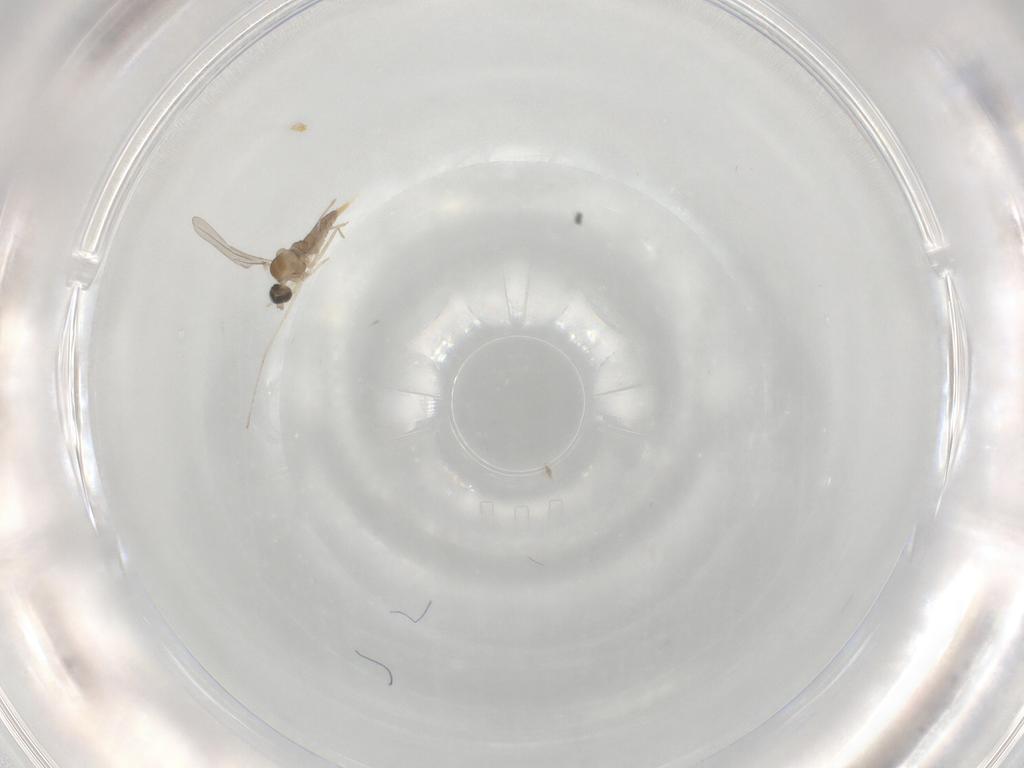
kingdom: Animalia
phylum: Arthropoda
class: Insecta
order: Diptera
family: Cecidomyiidae
